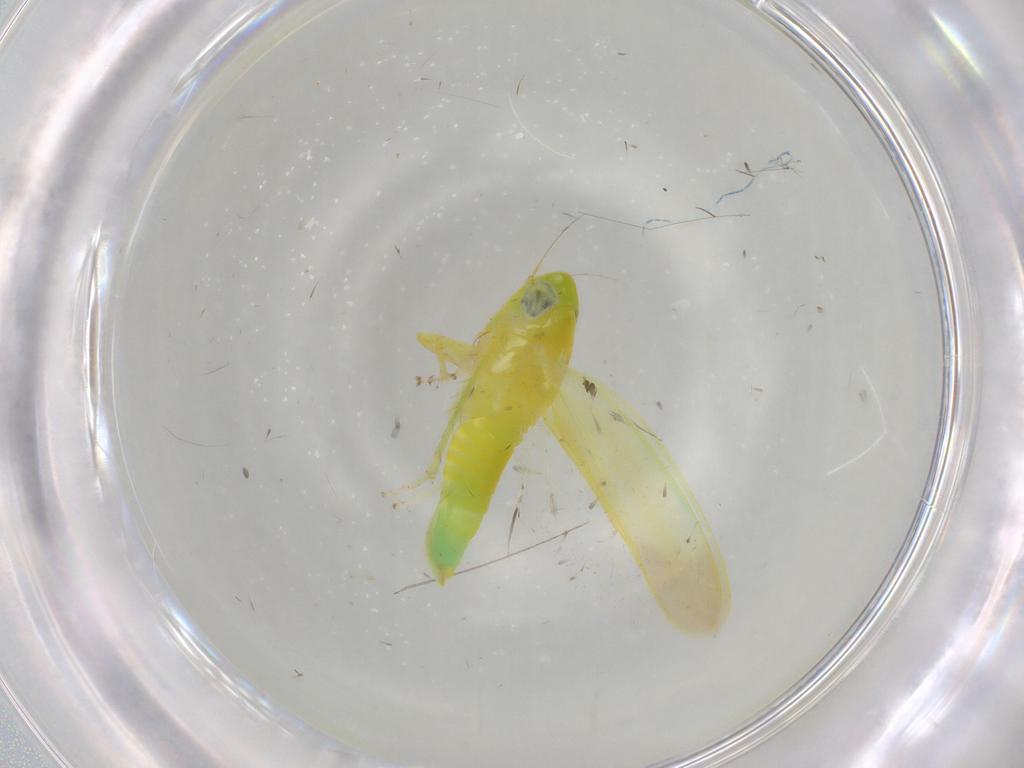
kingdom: Animalia
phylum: Arthropoda
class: Insecta
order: Hemiptera
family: Cicadellidae
